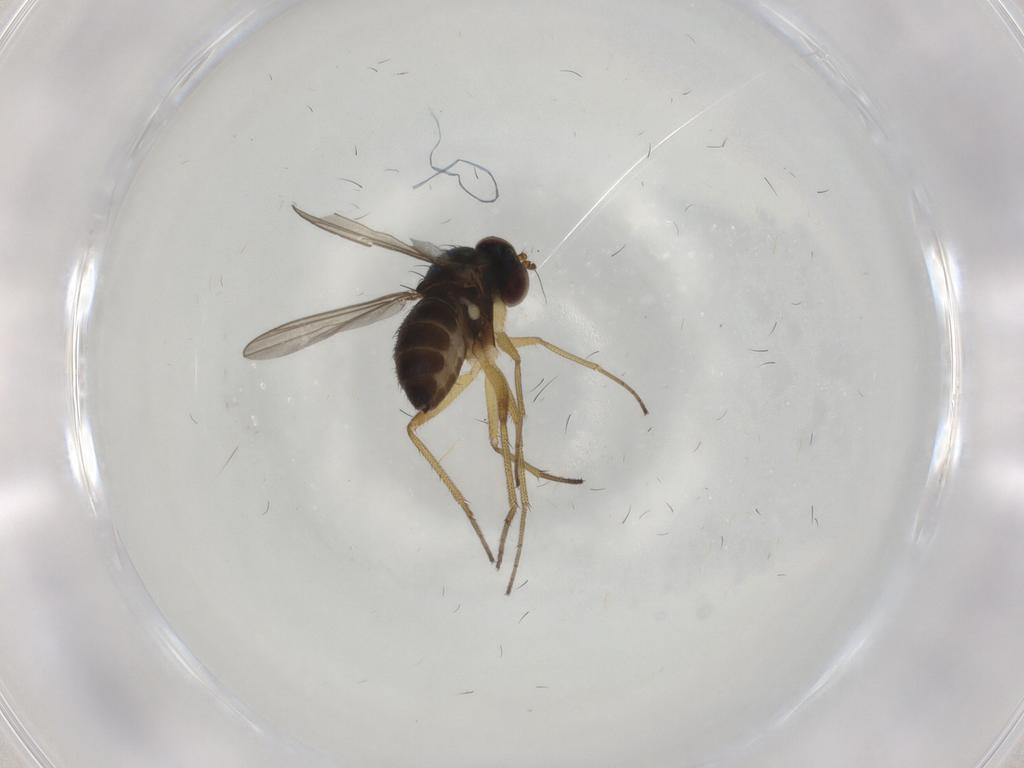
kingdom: Animalia
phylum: Arthropoda
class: Insecta
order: Diptera
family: Dolichopodidae
